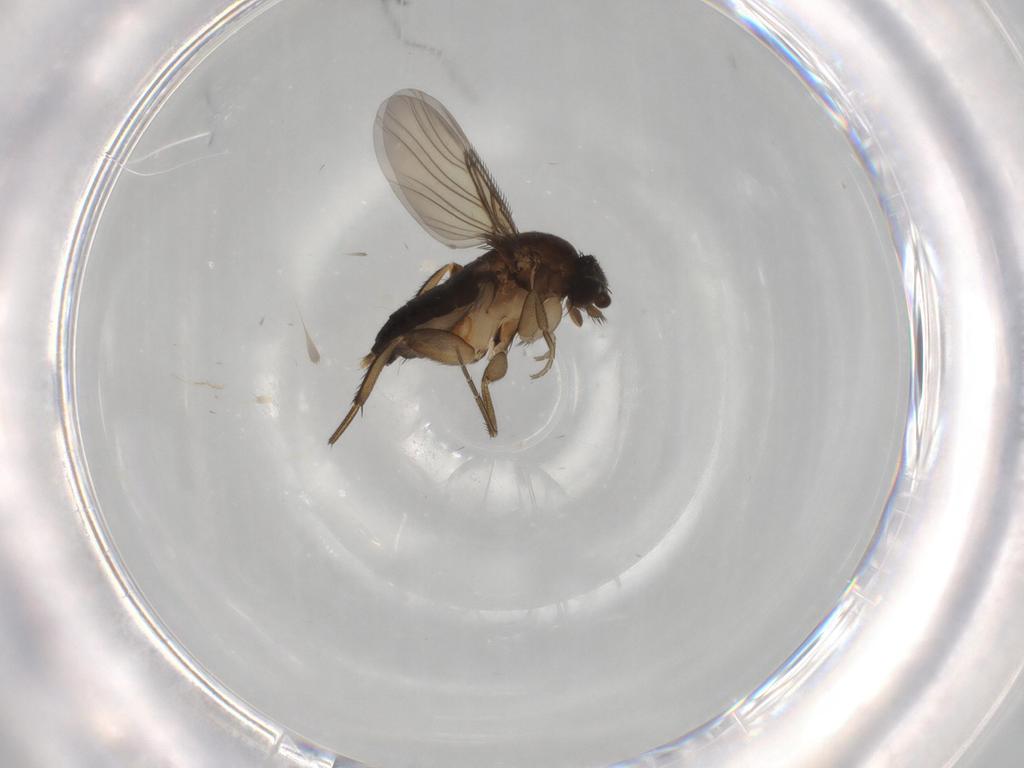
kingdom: Animalia
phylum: Arthropoda
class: Insecta
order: Diptera
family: Phoridae
